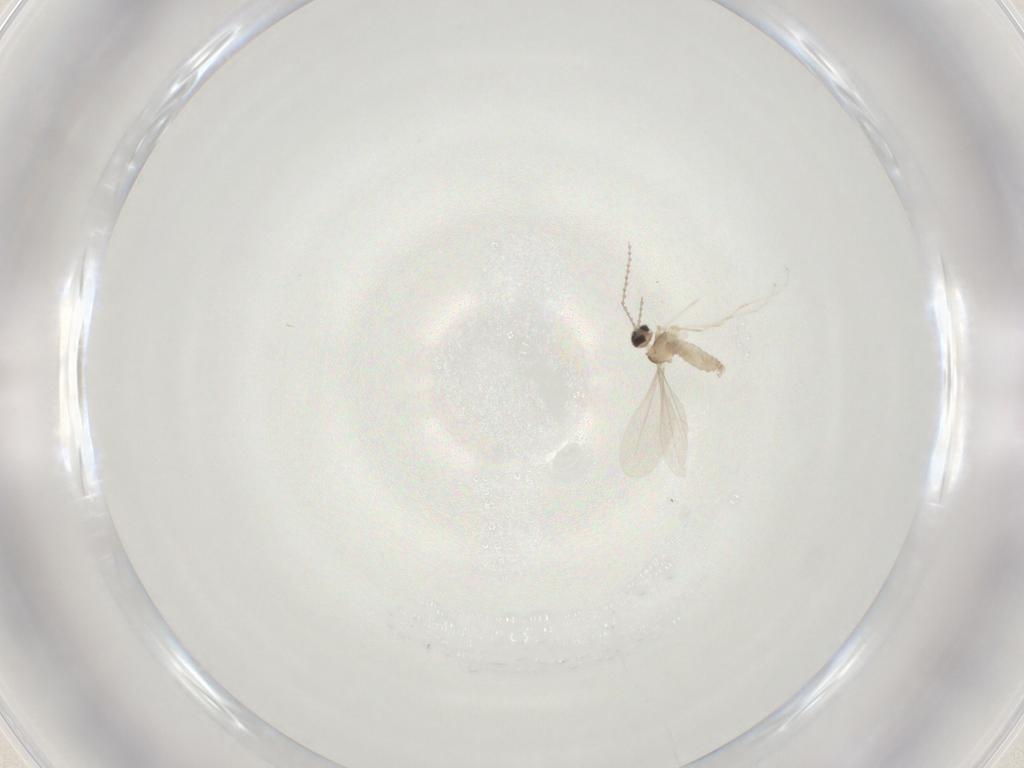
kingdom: Animalia
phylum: Arthropoda
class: Insecta
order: Diptera
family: Cecidomyiidae
